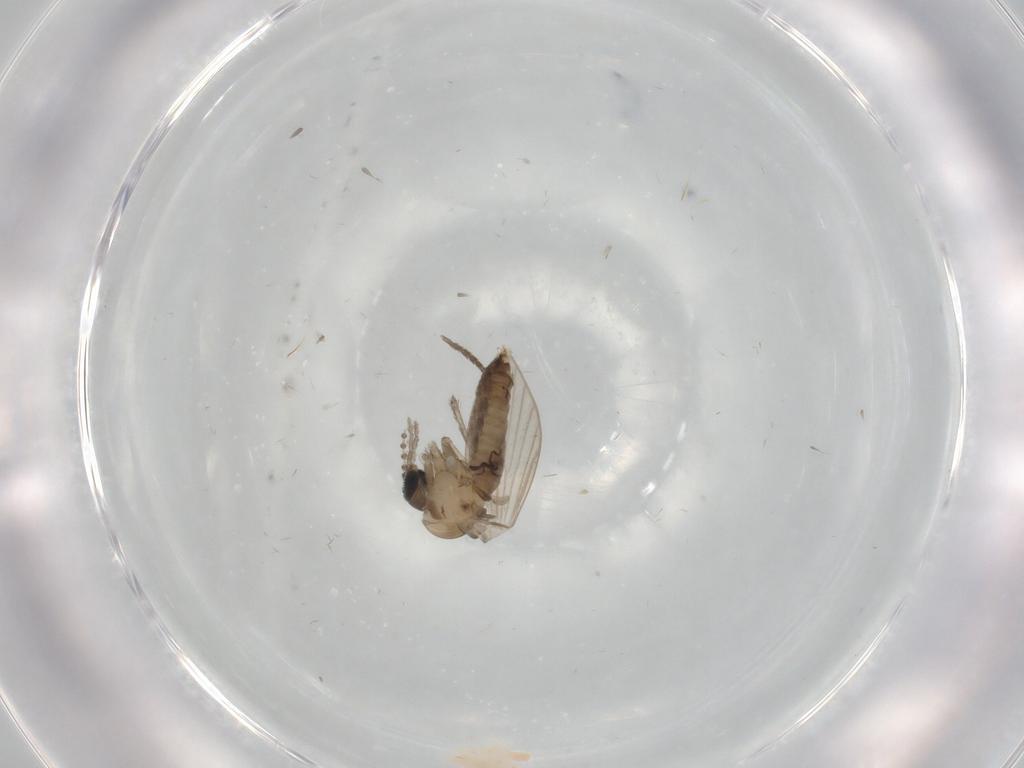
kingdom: Animalia
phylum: Arthropoda
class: Insecta
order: Diptera
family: Psychodidae
